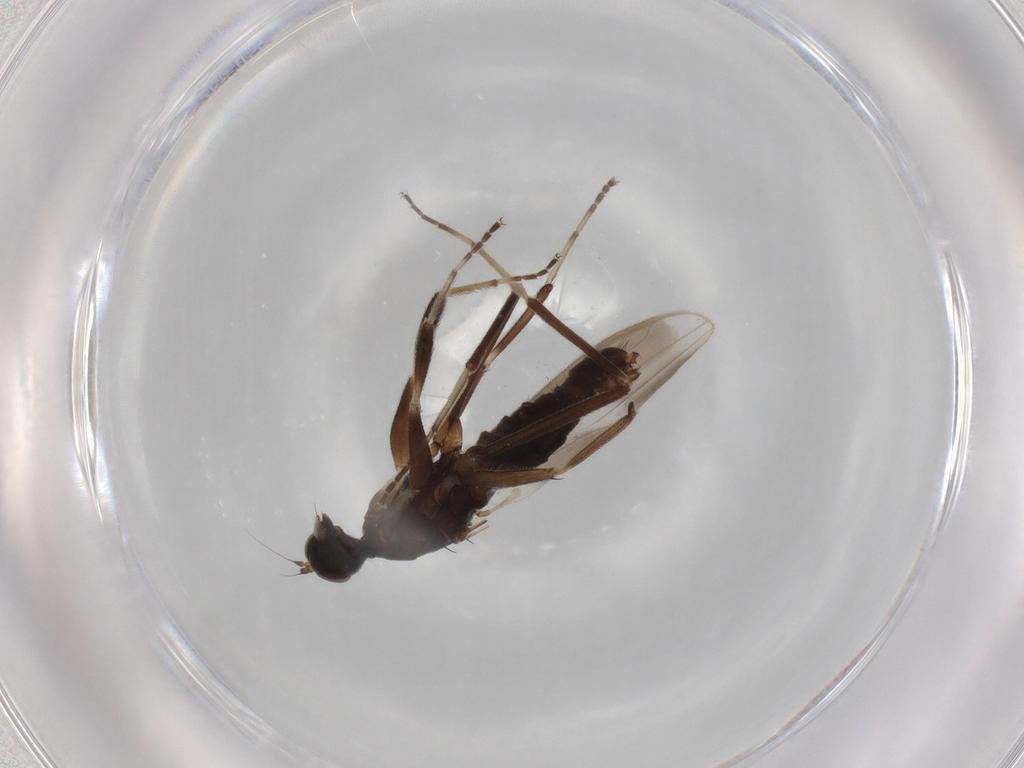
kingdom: Animalia
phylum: Arthropoda
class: Insecta
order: Diptera
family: Hybotidae
